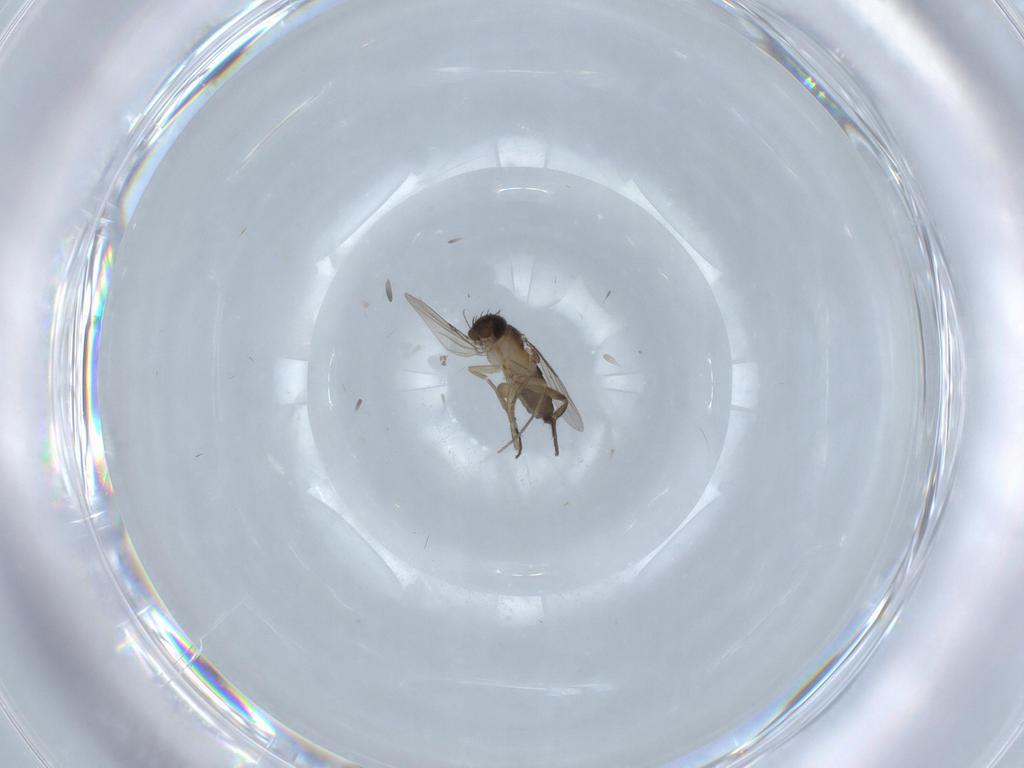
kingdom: Animalia
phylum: Arthropoda
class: Insecta
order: Diptera
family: Phoridae
